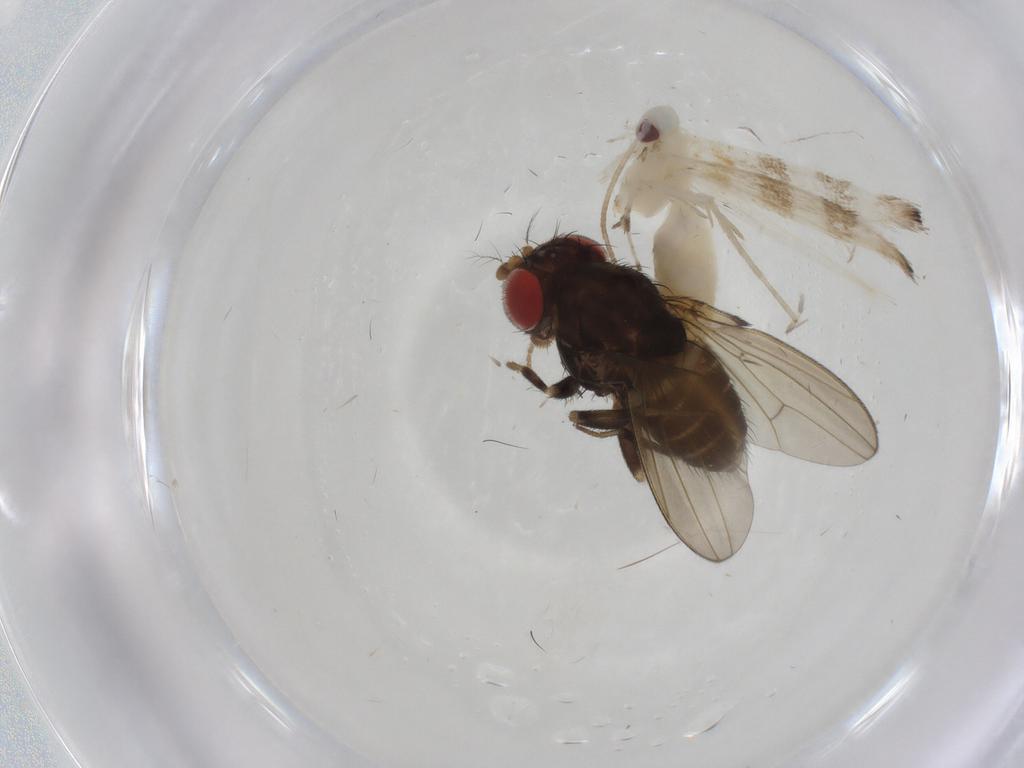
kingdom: Animalia
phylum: Arthropoda
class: Insecta
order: Diptera
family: Drosophilidae
